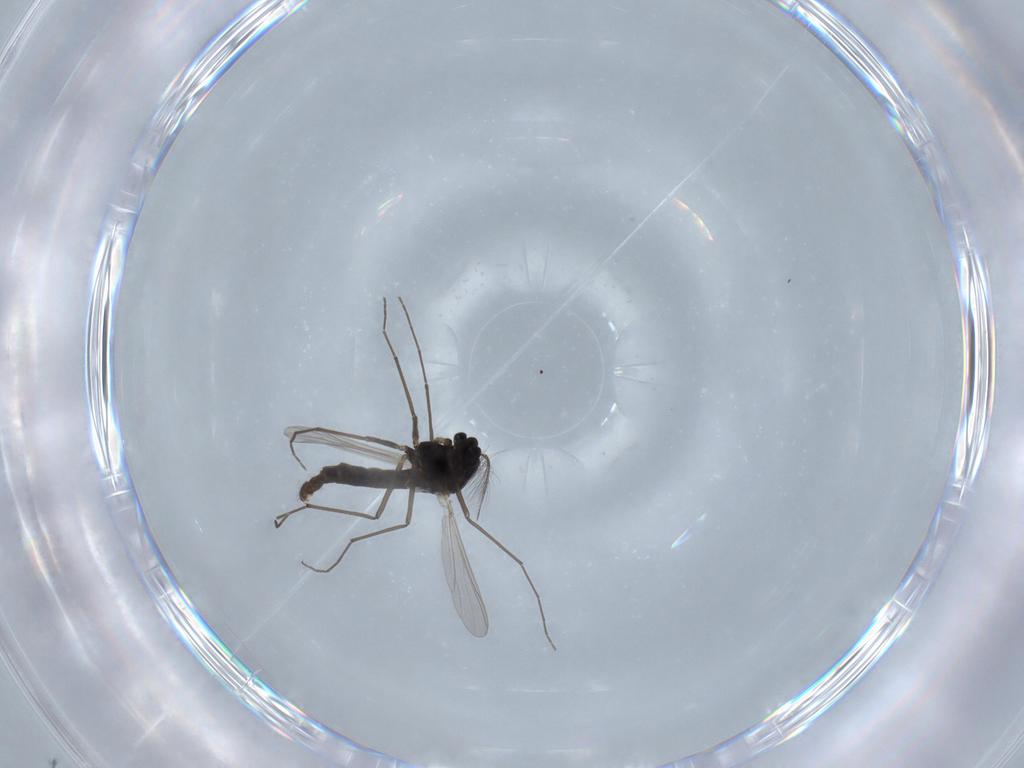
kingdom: Animalia
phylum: Arthropoda
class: Insecta
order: Diptera
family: Chironomidae
